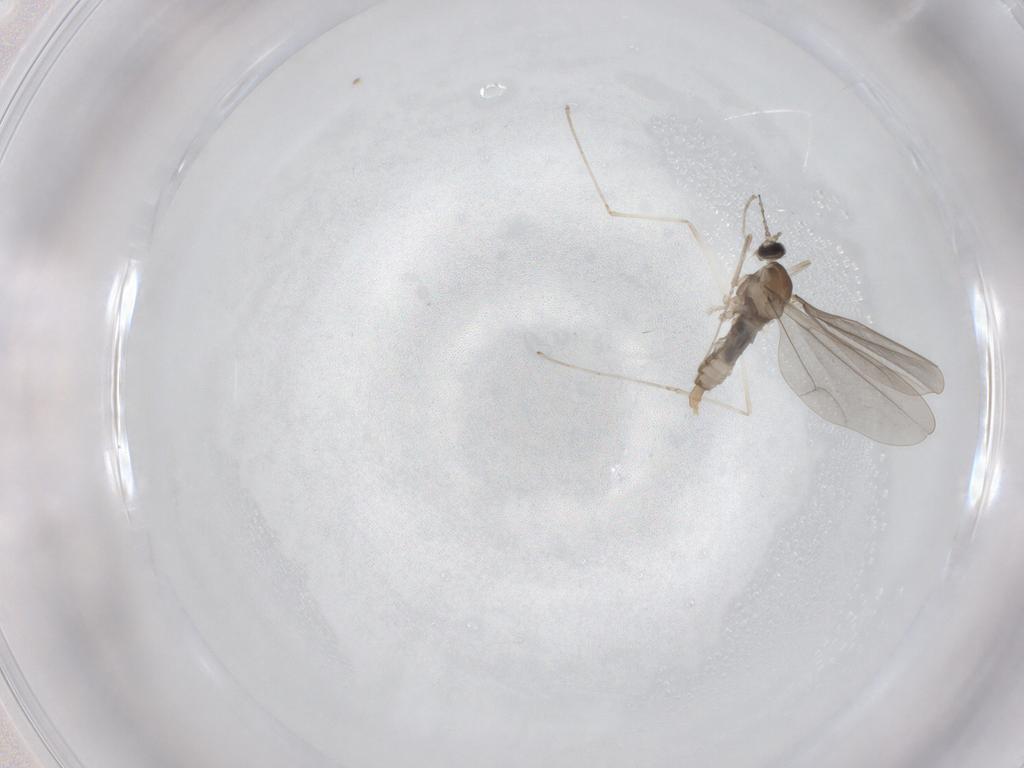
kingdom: Animalia
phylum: Arthropoda
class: Insecta
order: Diptera
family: Cecidomyiidae
